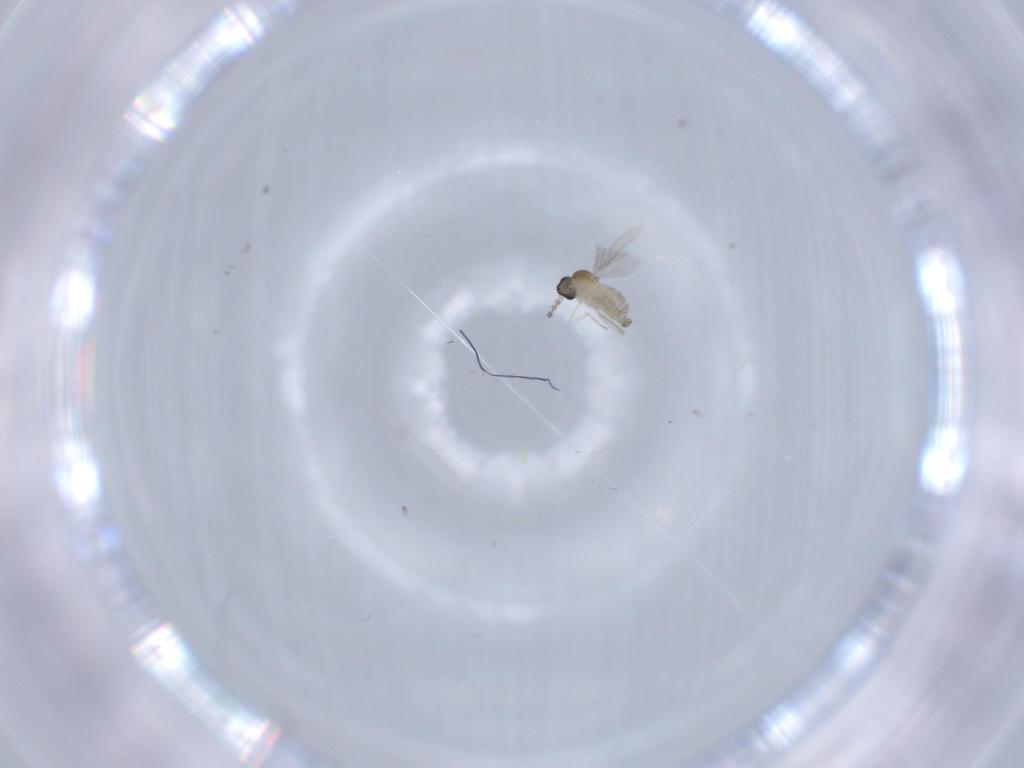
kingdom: Animalia
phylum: Arthropoda
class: Insecta
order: Diptera
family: Cecidomyiidae
